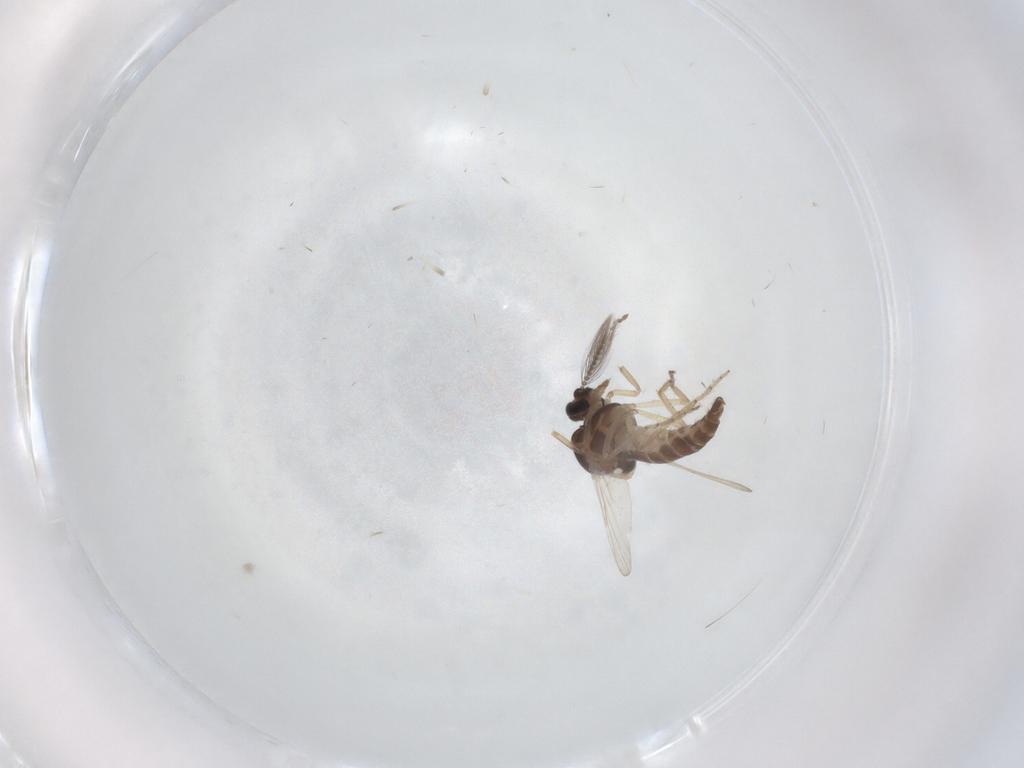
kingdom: Animalia
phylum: Arthropoda
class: Insecta
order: Diptera
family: Ceratopogonidae
